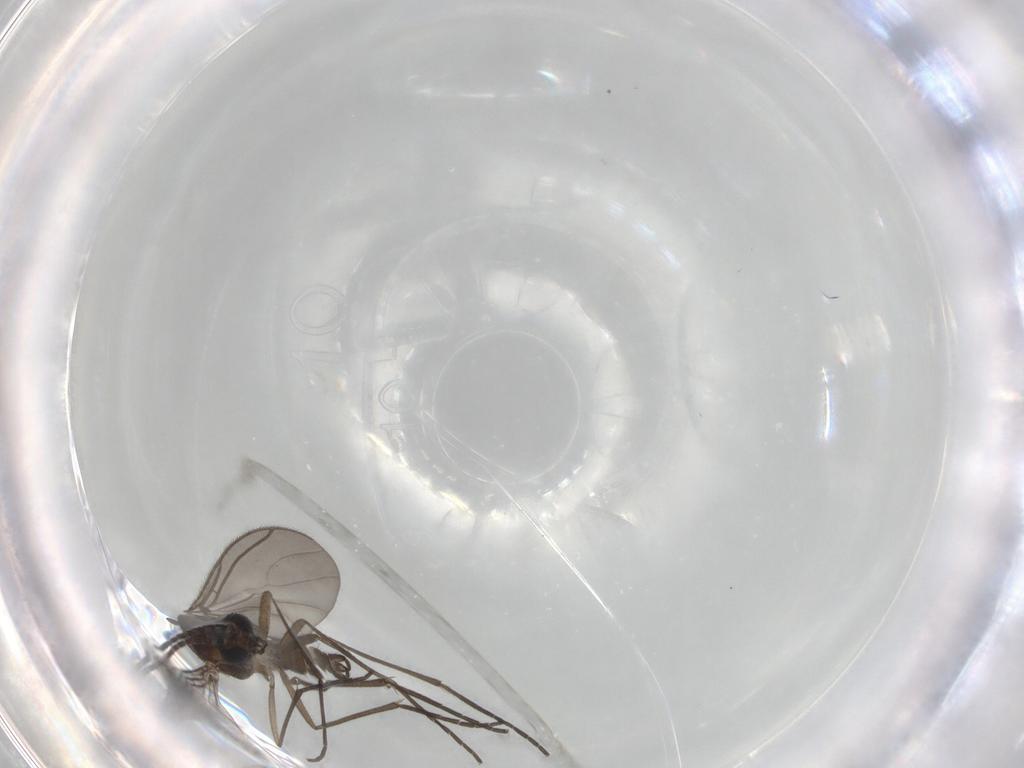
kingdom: Animalia
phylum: Arthropoda
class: Insecta
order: Diptera
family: Sciaridae
